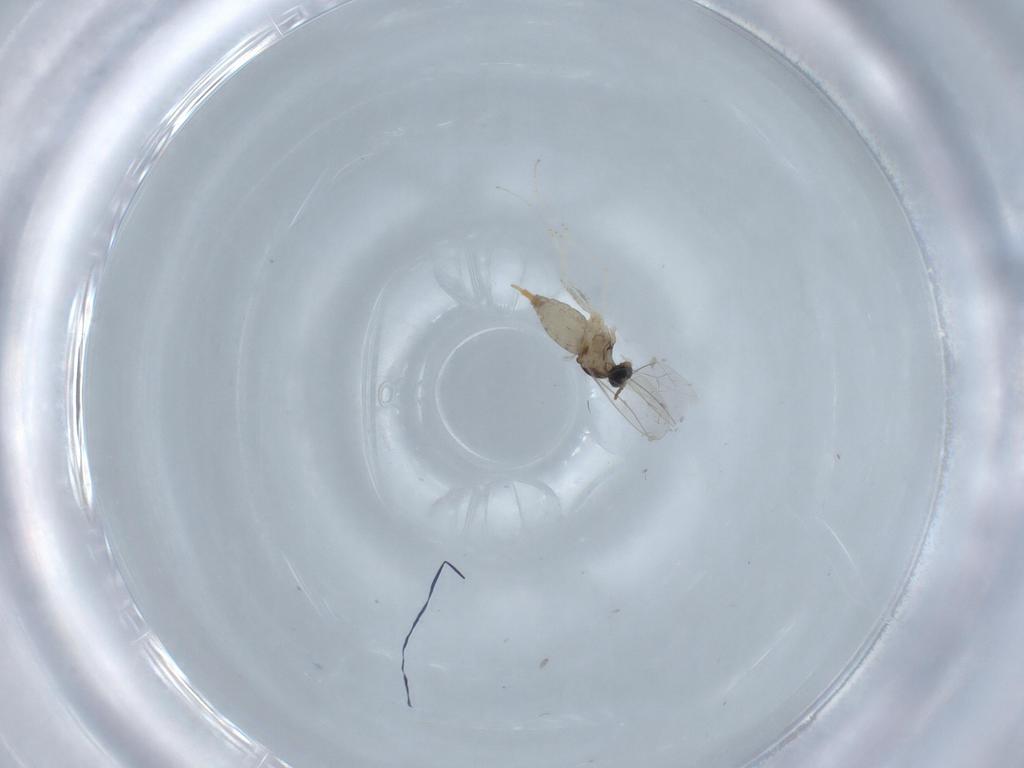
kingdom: Animalia
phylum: Arthropoda
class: Insecta
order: Diptera
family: Cecidomyiidae
